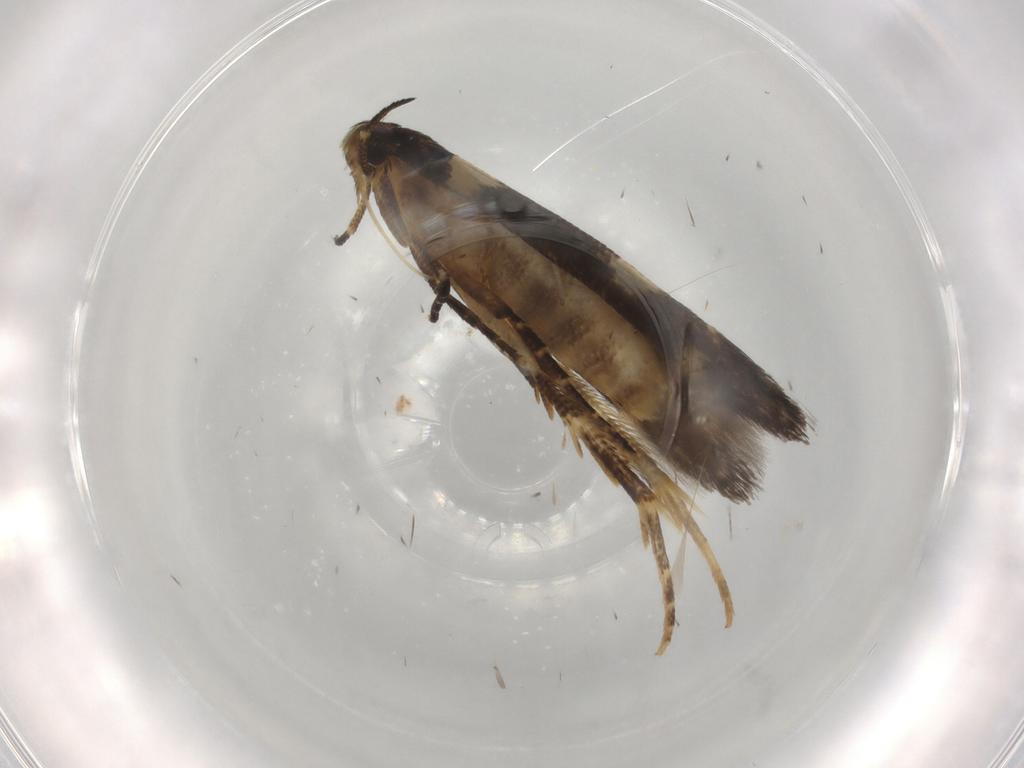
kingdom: Animalia
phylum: Arthropoda
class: Insecta
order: Lepidoptera
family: Cosmopterigidae
